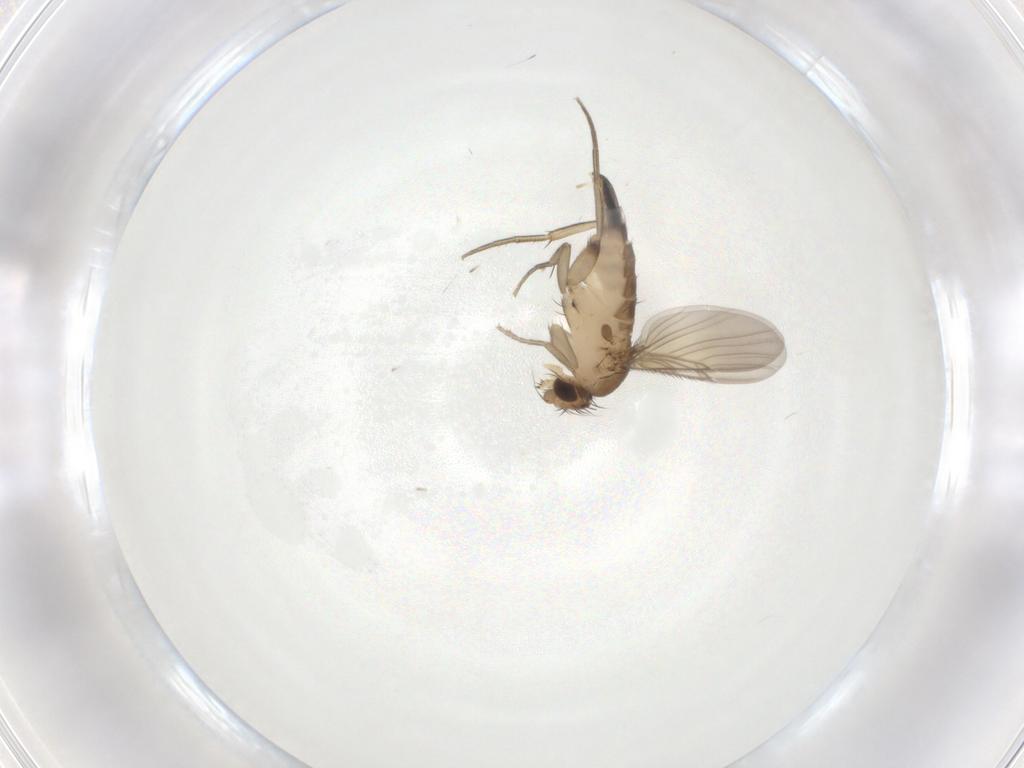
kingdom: Animalia
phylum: Arthropoda
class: Insecta
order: Diptera
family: Phoridae
